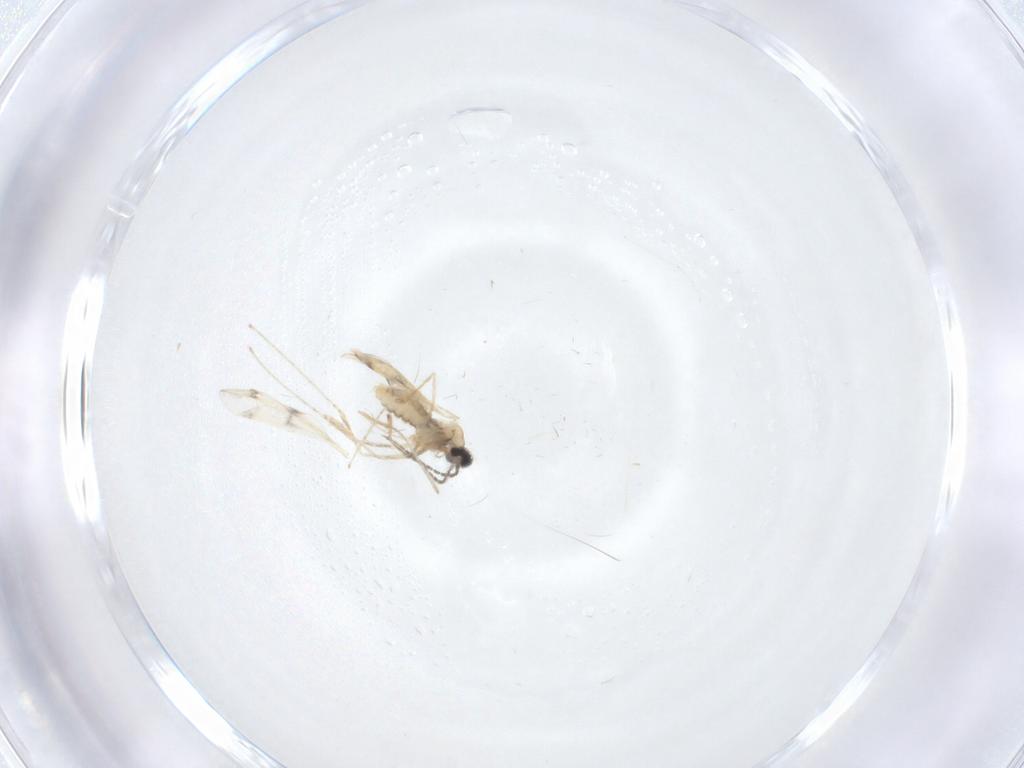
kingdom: Animalia
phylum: Arthropoda
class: Insecta
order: Diptera
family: Cecidomyiidae
